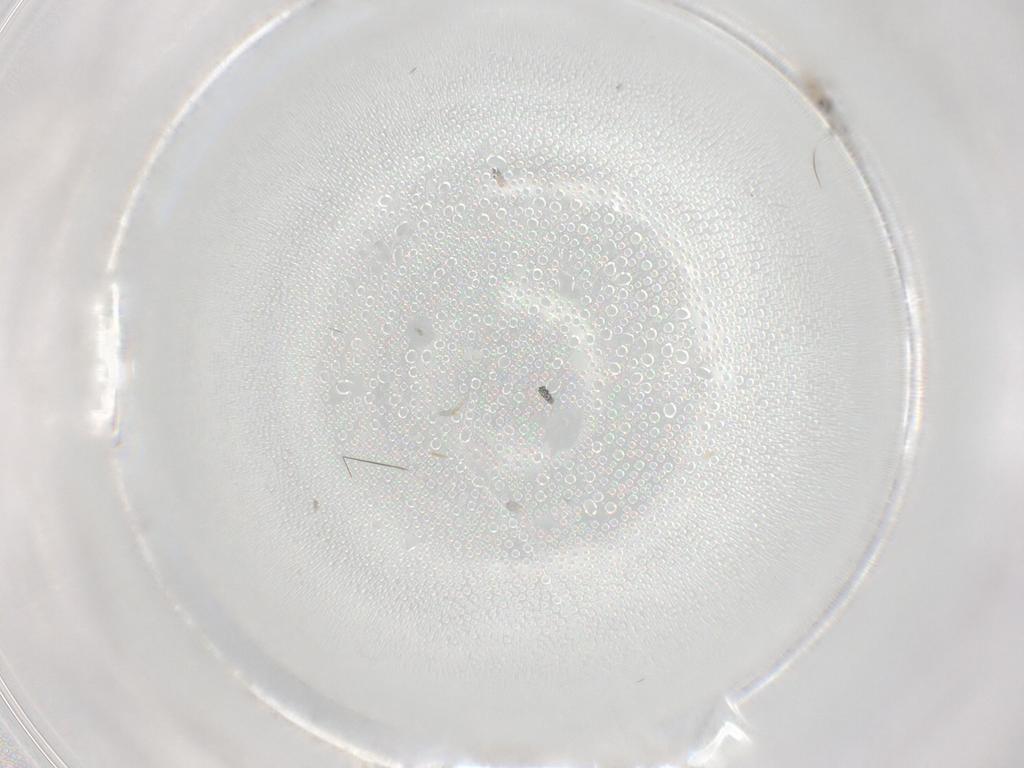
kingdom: Animalia
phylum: Arthropoda
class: Insecta
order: Diptera
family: Cecidomyiidae
